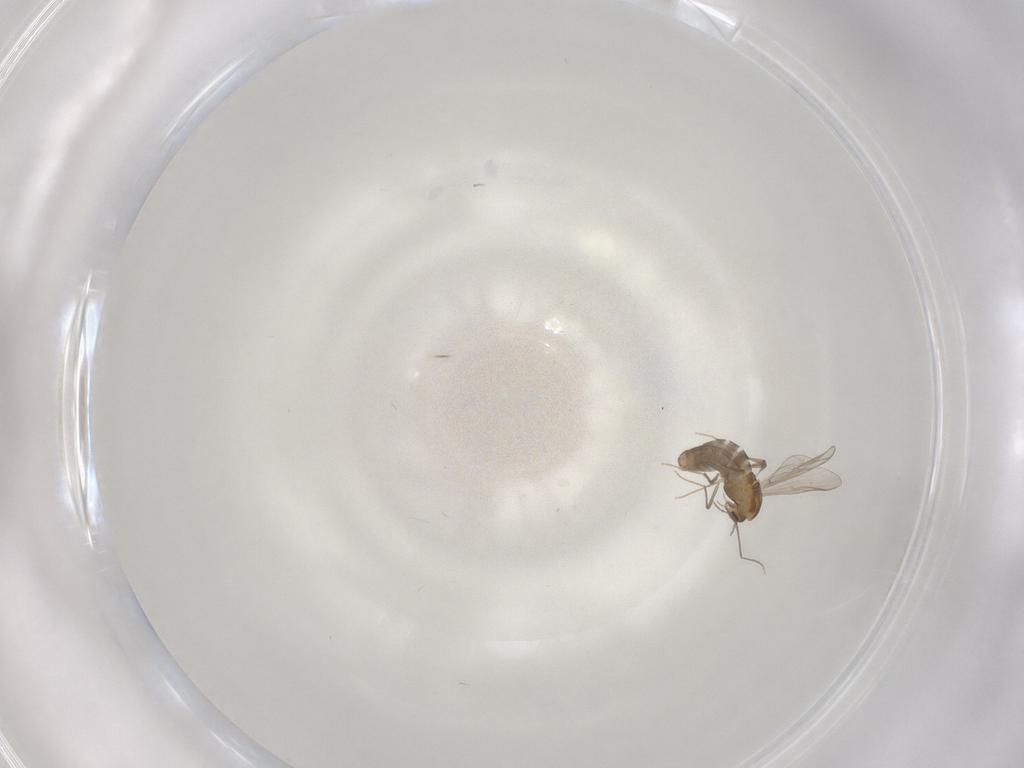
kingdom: Animalia
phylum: Arthropoda
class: Insecta
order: Diptera
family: Chironomidae
